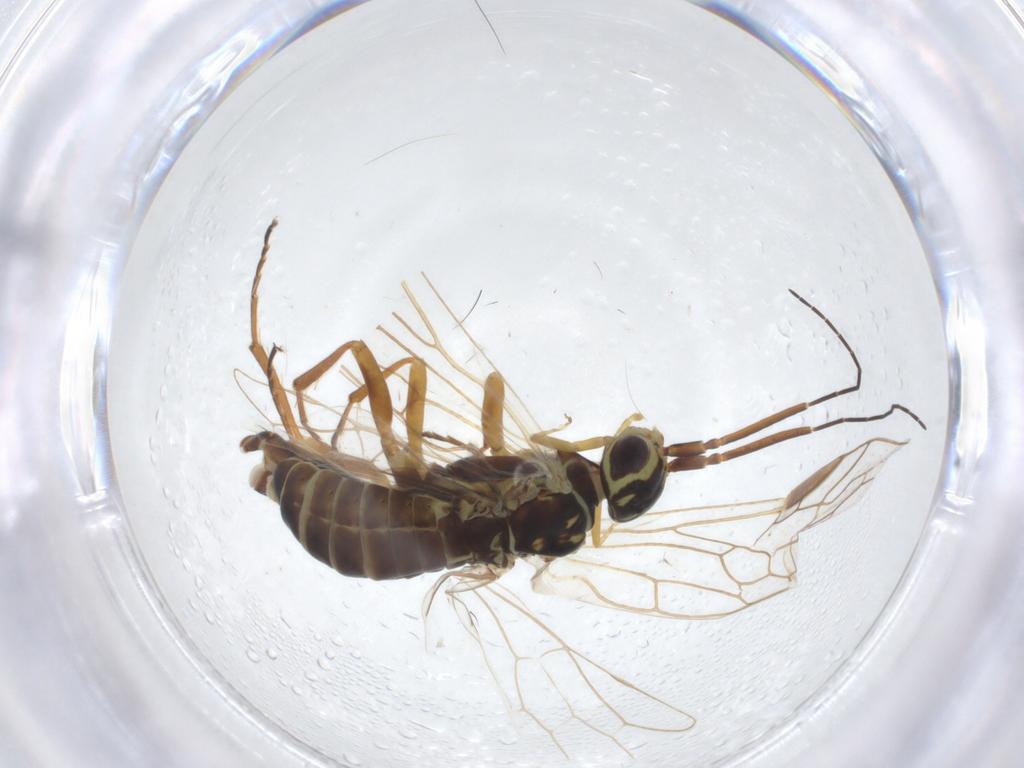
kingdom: Animalia
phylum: Arthropoda
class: Insecta
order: Hymenoptera
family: Xyelidae
